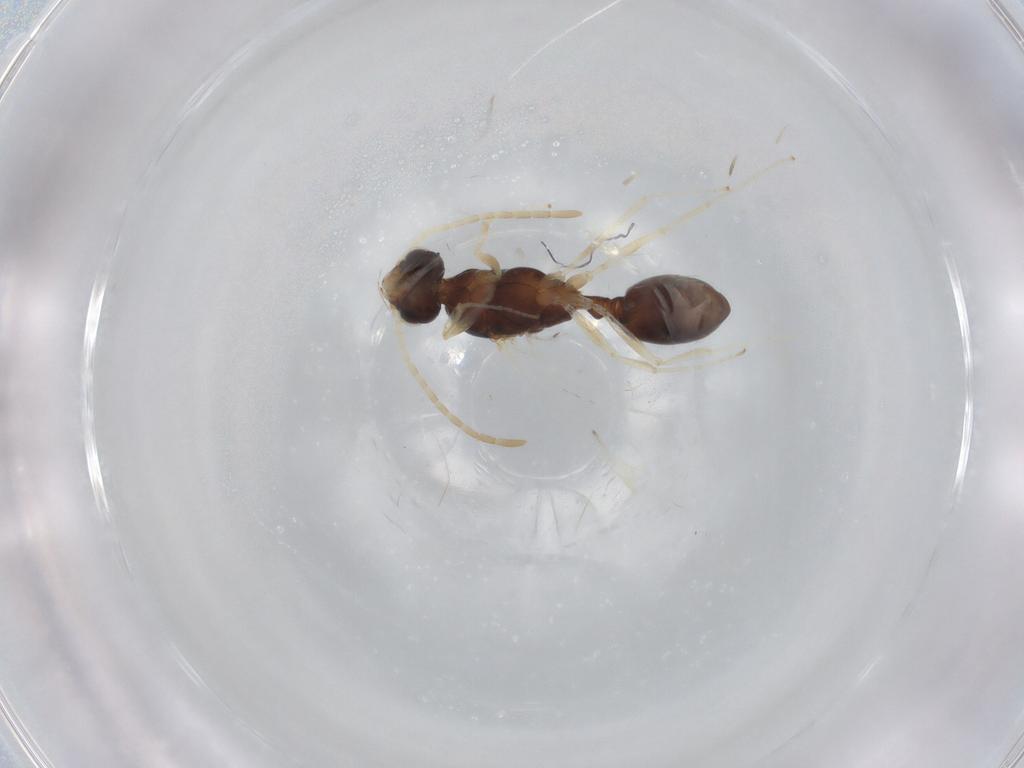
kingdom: Animalia
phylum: Arthropoda
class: Insecta
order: Hymenoptera
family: Formicidae
